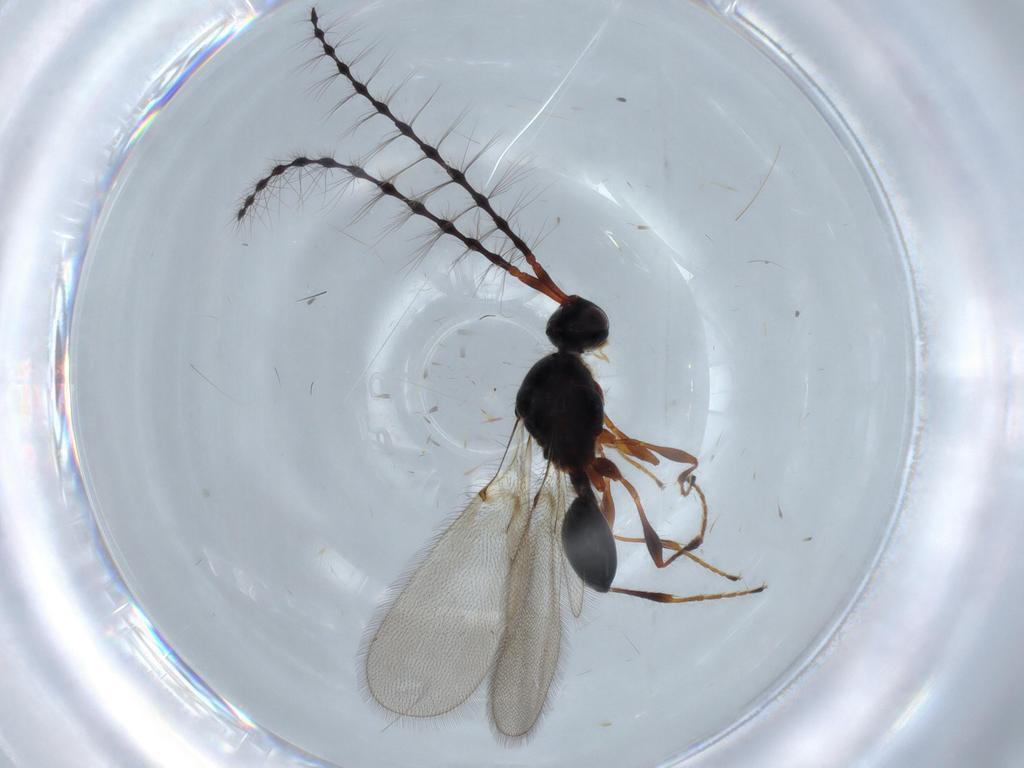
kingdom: Animalia
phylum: Arthropoda
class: Insecta
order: Hymenoptera
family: Diapriidae
